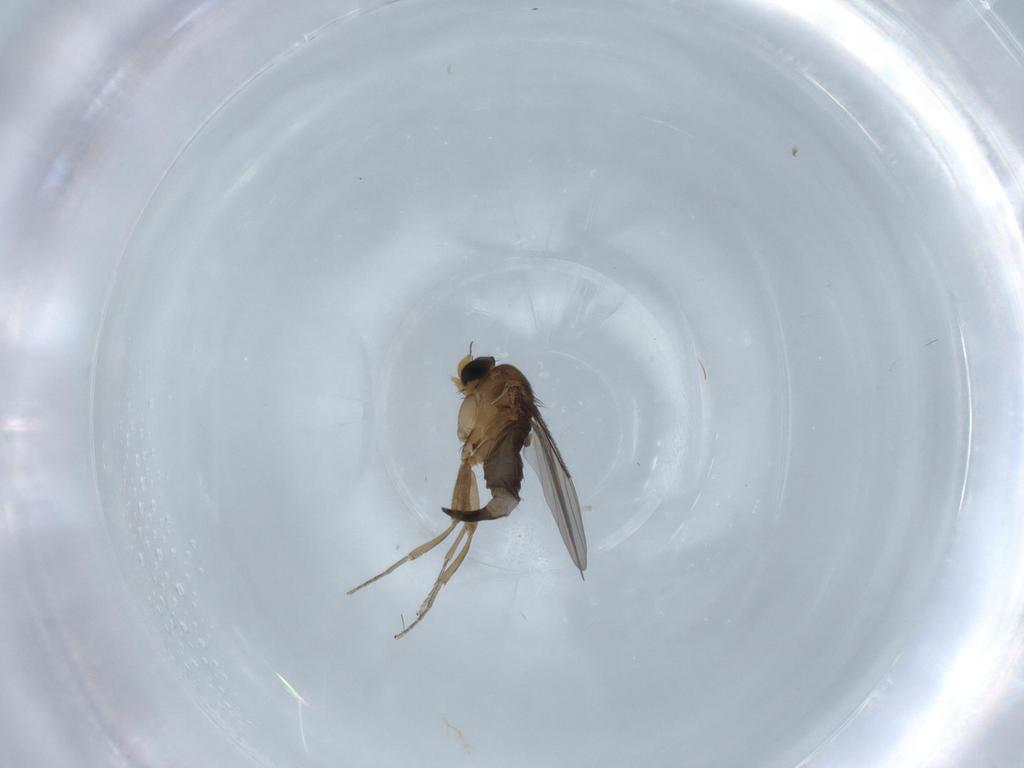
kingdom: Animalia
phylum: Arthropoda
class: Insecta
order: Diptera
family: Phoridae
